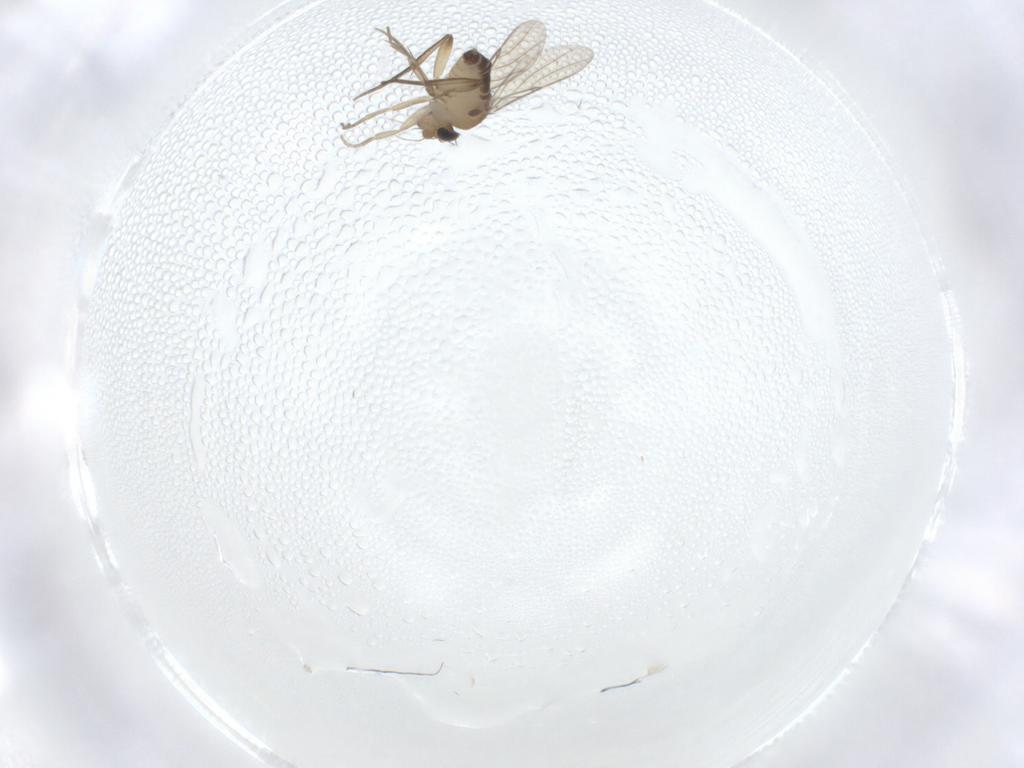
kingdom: Animalia
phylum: Arthropoda
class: Insecta
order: Diptera
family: Phoridae
